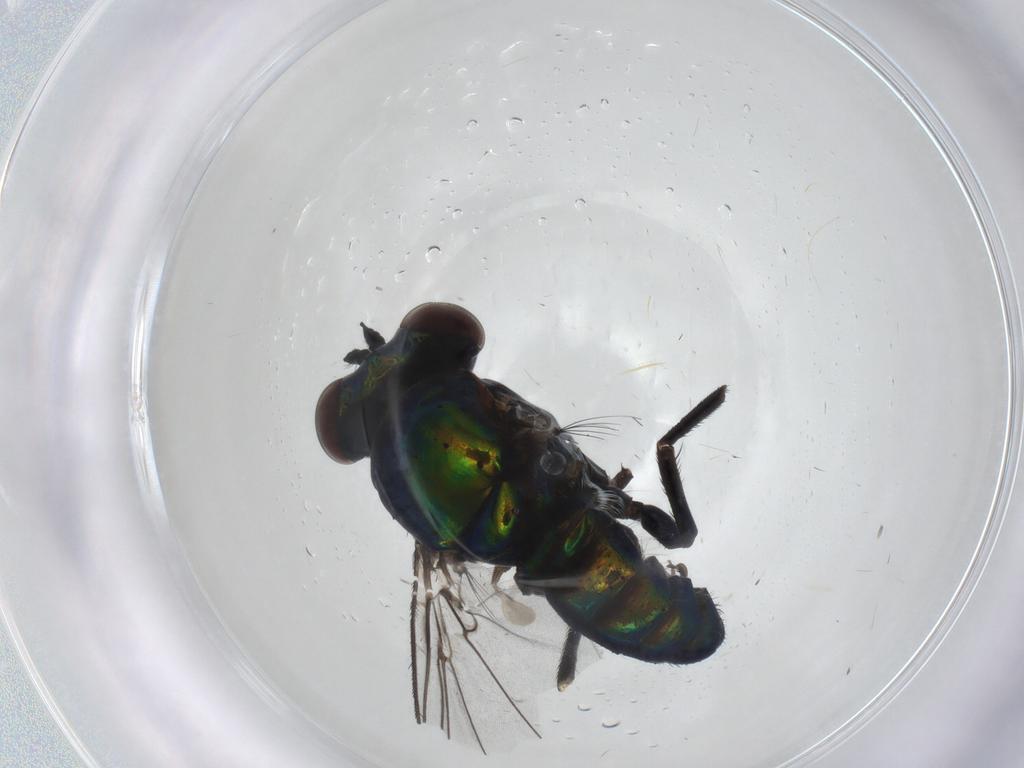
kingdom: Animalia
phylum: Arthropoda
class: Insecta
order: Diptera
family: Dolichopodidae
